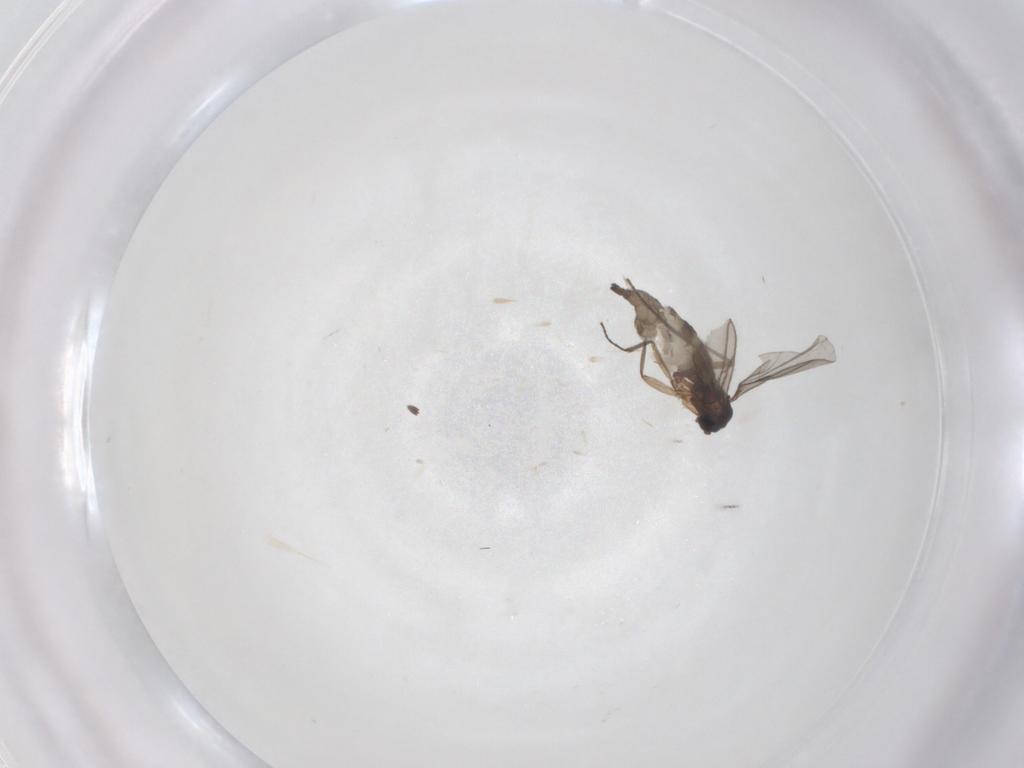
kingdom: Animalia
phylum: Arthropoda
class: Insecta
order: Diptera
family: Sciaridae
